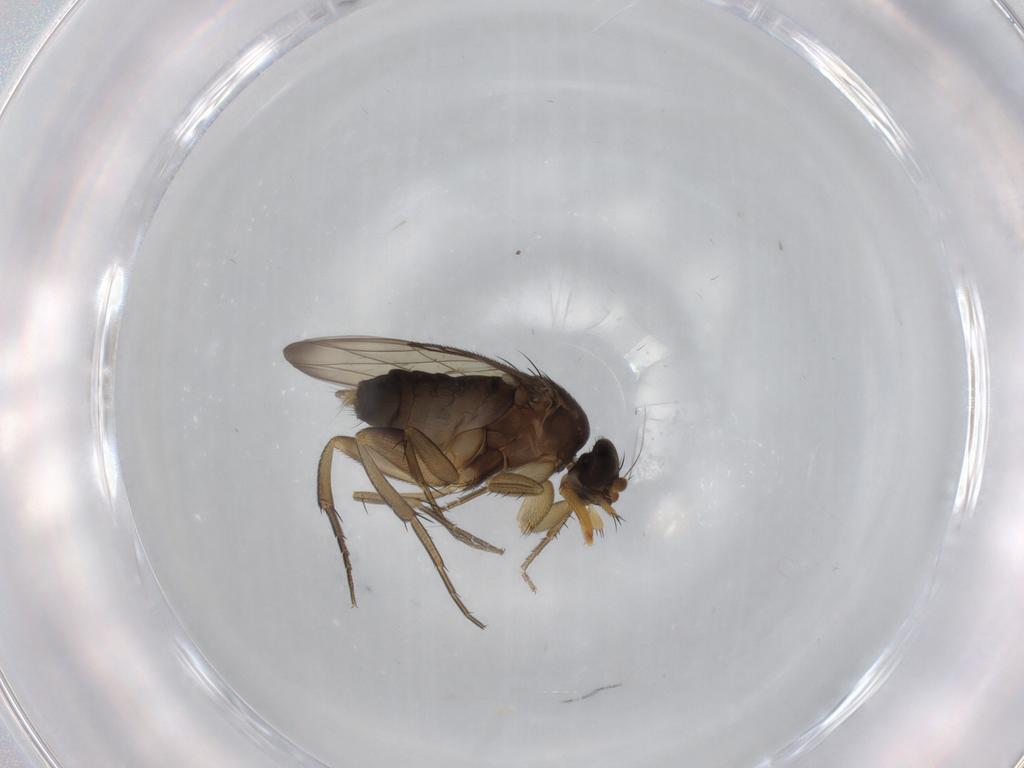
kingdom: Animalia
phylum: Arthropoda
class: Insecta
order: Diptera
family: Phoridae
